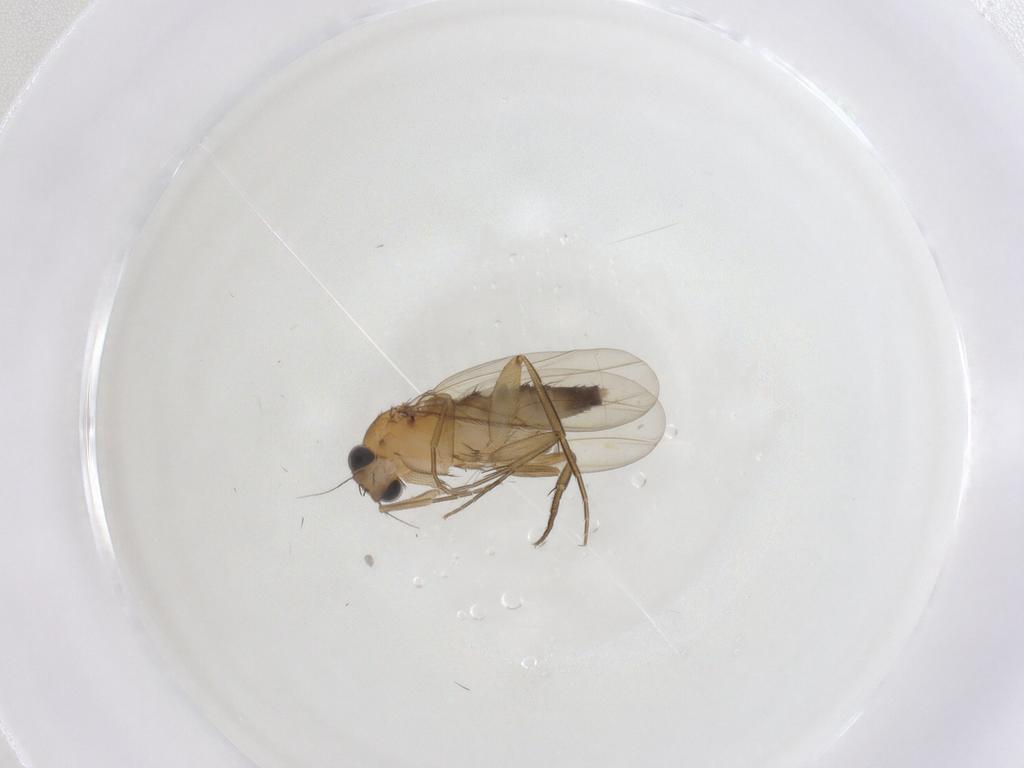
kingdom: Animalia
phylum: Arthropoda
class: Insecta
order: Diptera
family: Phoridae
